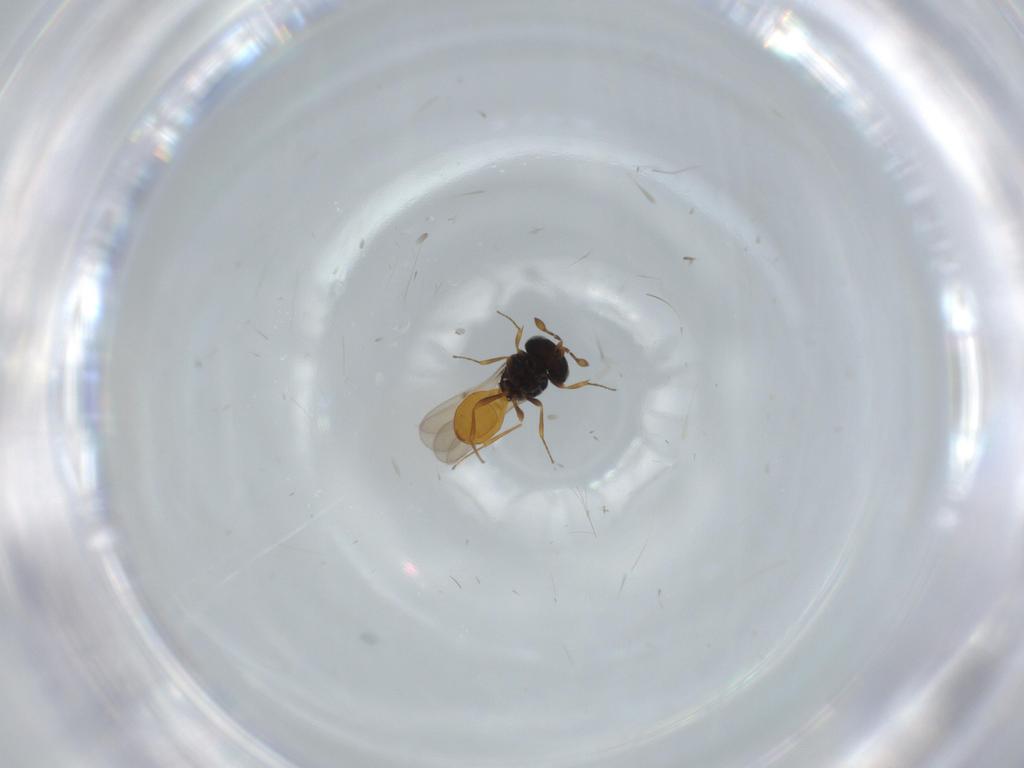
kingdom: Animalia
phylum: Arthropoda
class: Insecta
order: Hymenoptera
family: Scelionidae
